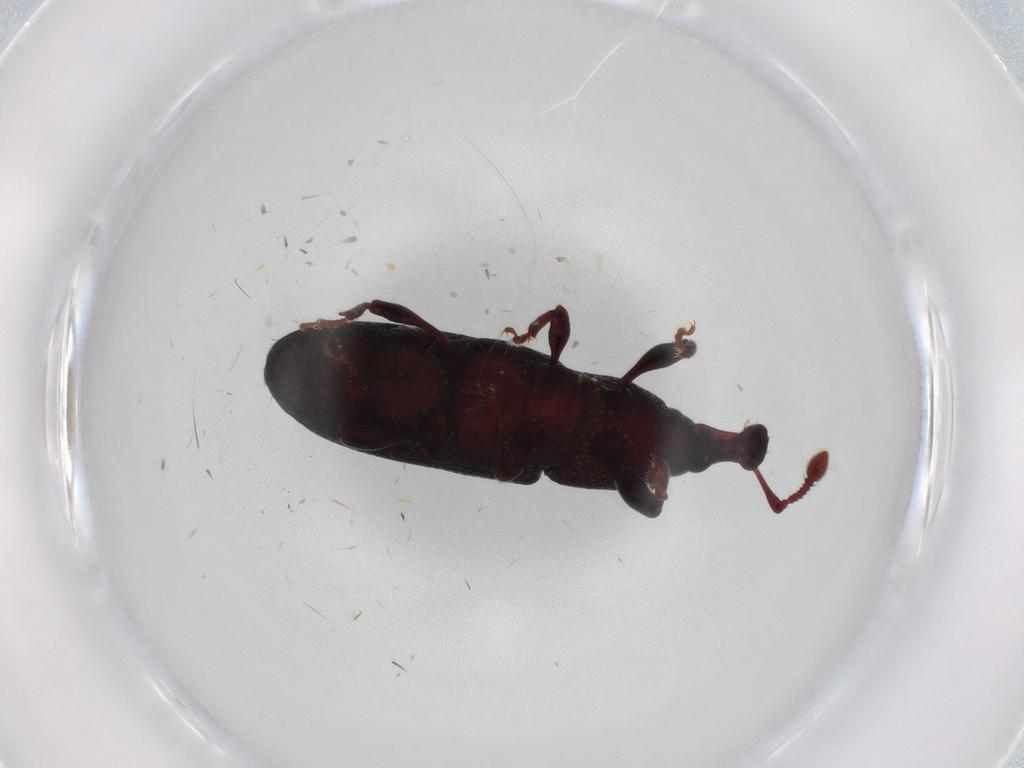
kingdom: Animalia
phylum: Arthropoda
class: Insecta
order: Coleoptera
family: Chrysomelidae
